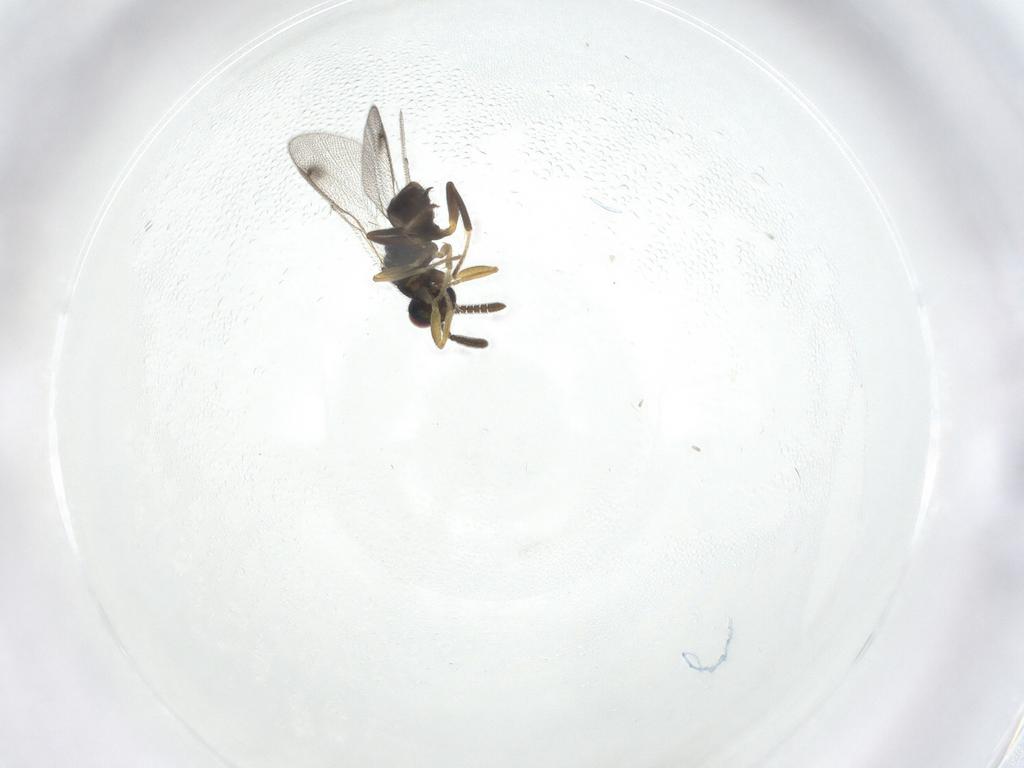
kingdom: Animalia
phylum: Arthropoda
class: Insecta
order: Hymenoptera
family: Torymidae
